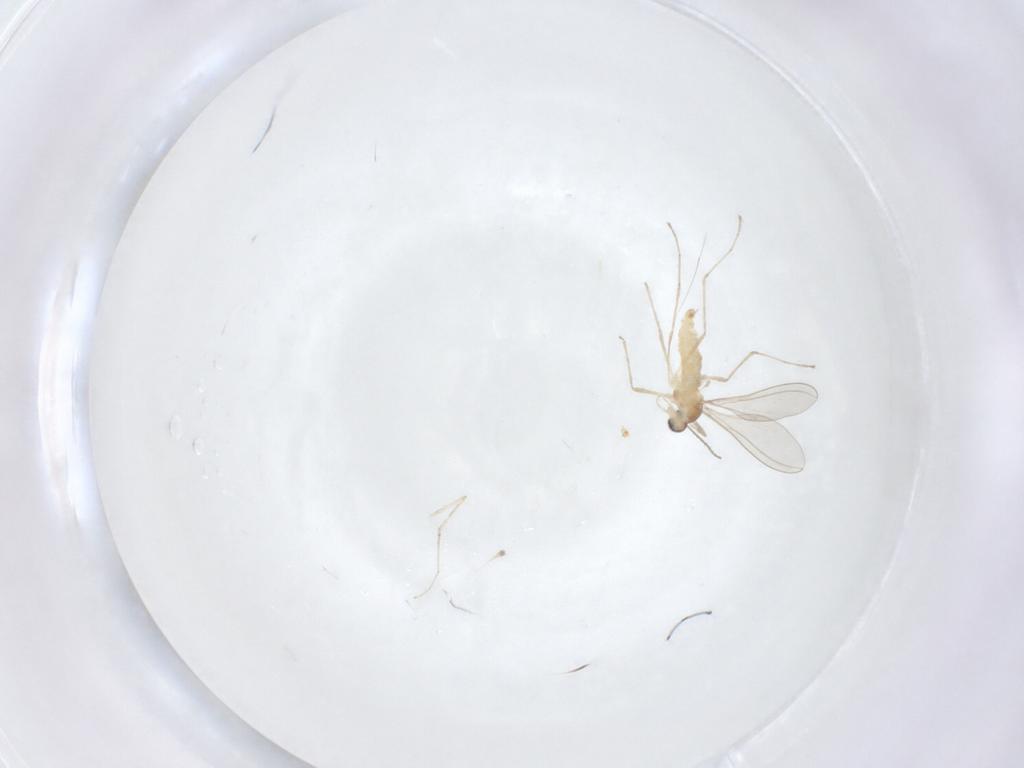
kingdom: Animalia
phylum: Arthropoda
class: Insecta
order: Diptera
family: Cecidomyiidae
